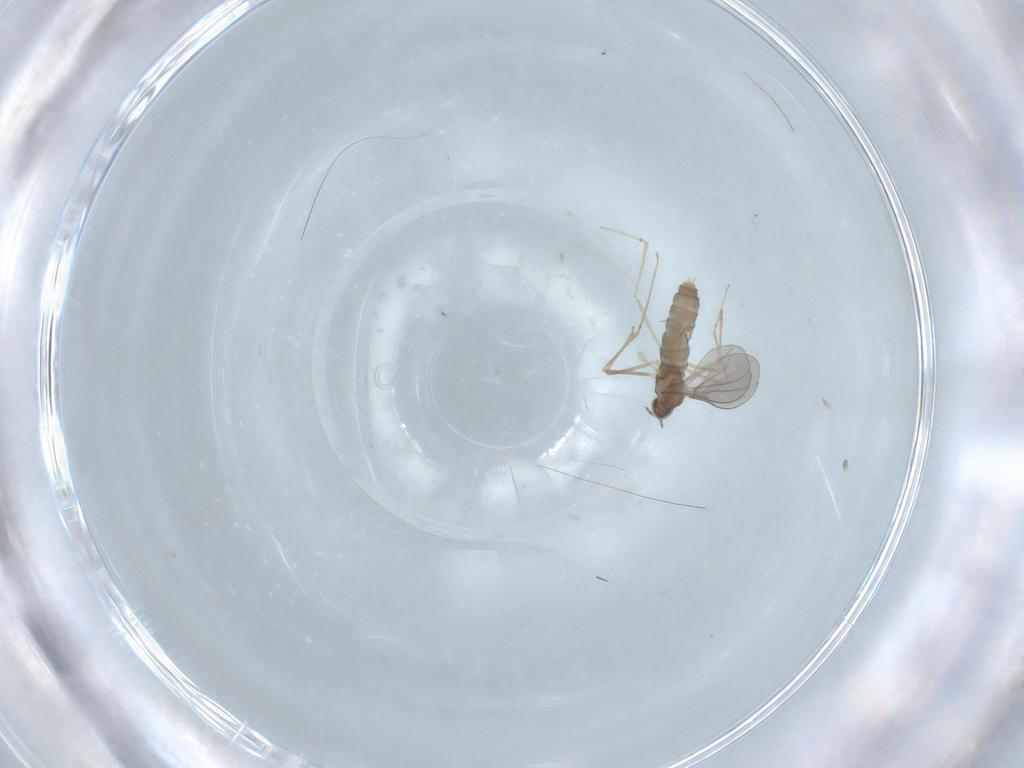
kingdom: Animalia
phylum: Arthropoda
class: Insecta
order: Diptera
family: Cecidomyiidae
